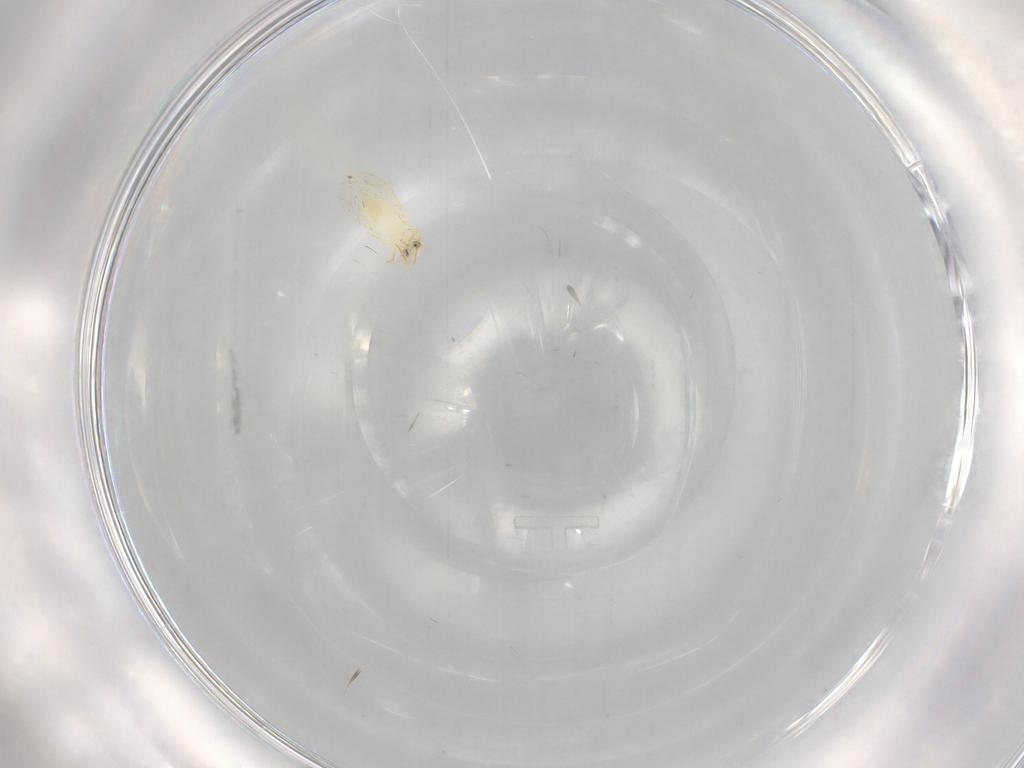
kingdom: Animalia
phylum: Arthropoda
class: Insecta
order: Hemiptera
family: Aleyrodidae
